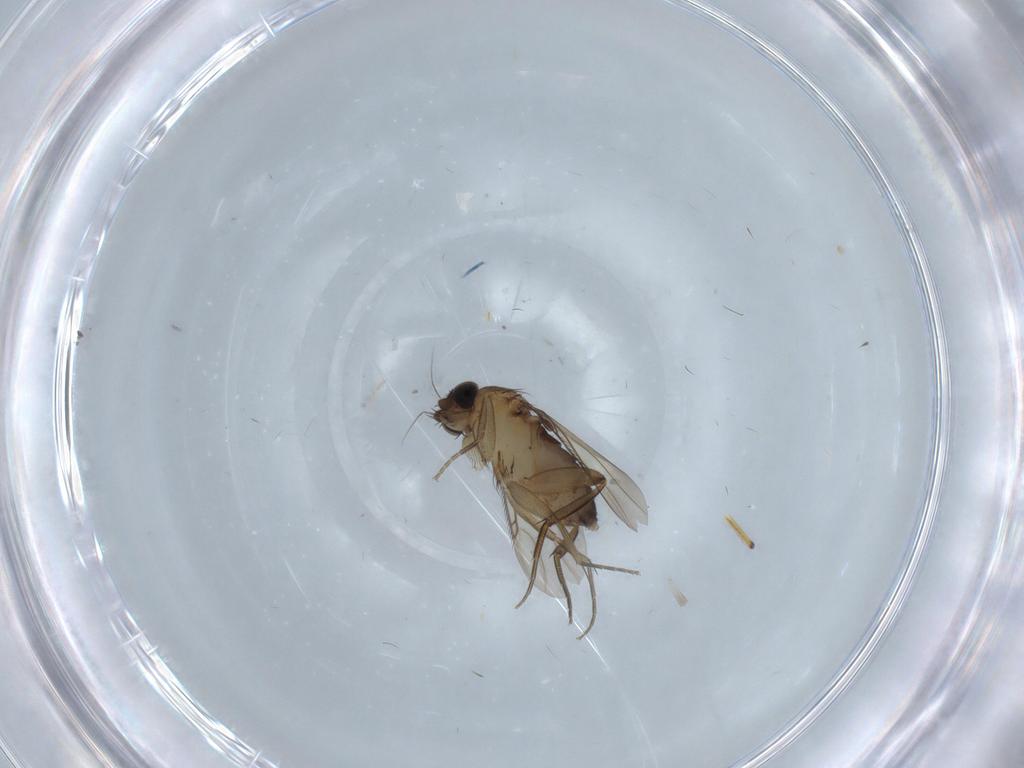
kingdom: Animalia
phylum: Arthropoda
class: Insecta
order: Diptera
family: Phoridae
